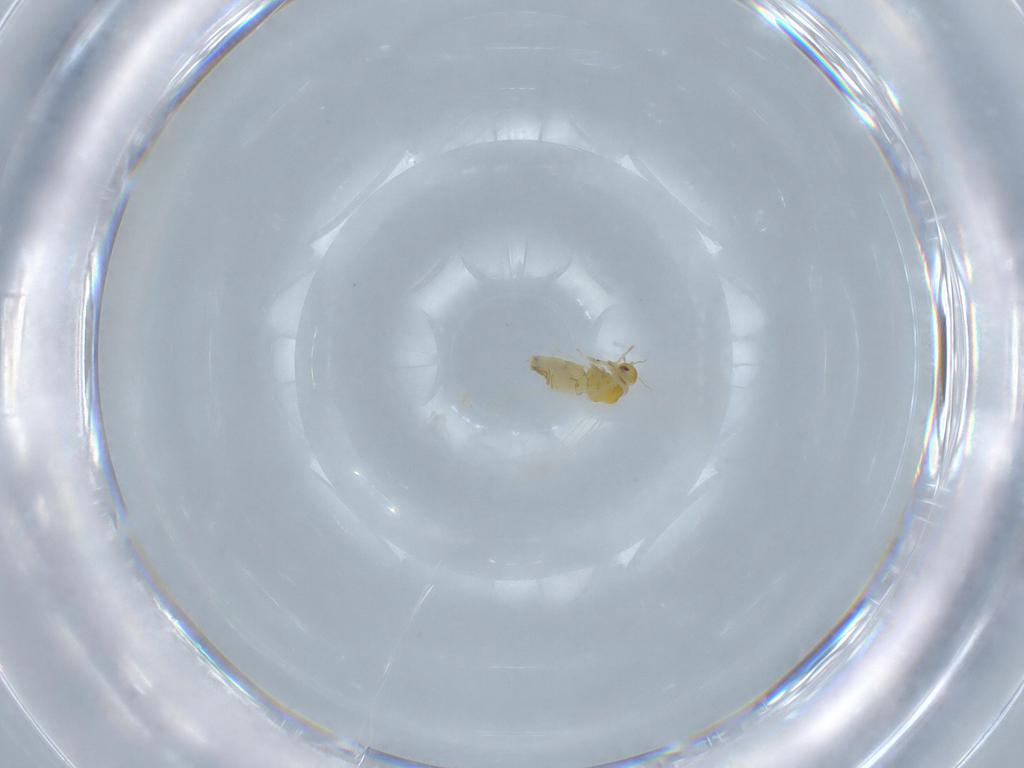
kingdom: Animalia
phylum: Arthropoda
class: Insecta
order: Hemiptera
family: Aleyrodidae
